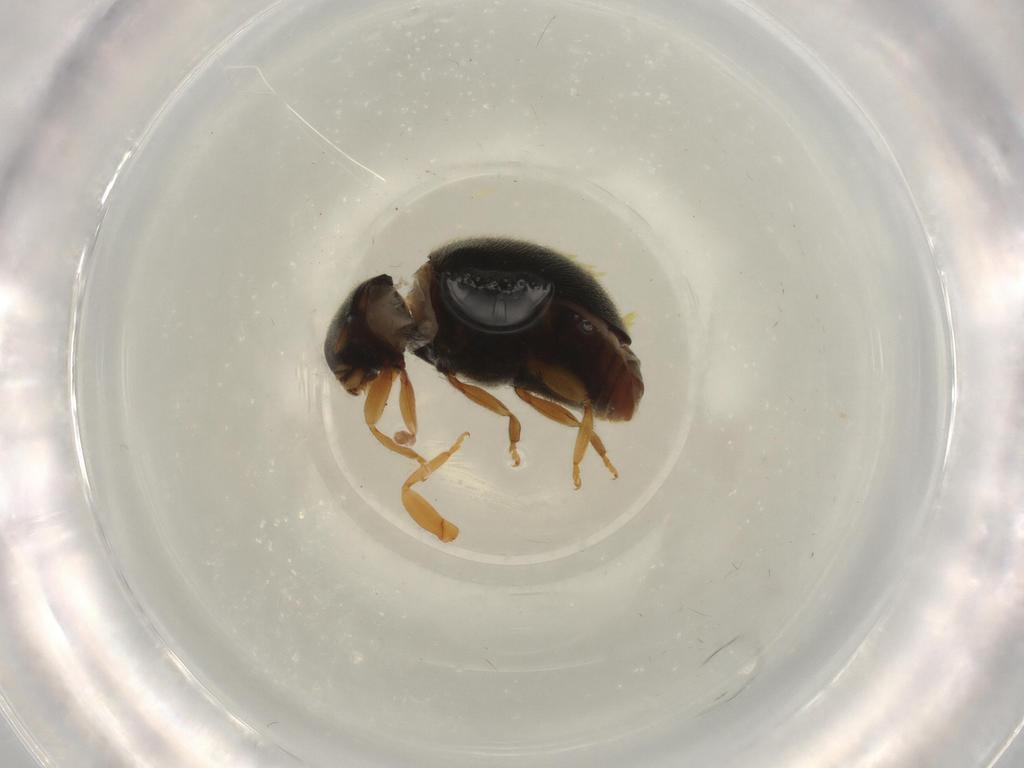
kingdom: Animalia
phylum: Arthropoda
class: Insecta
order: Coleoptera
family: Coccinellidae
